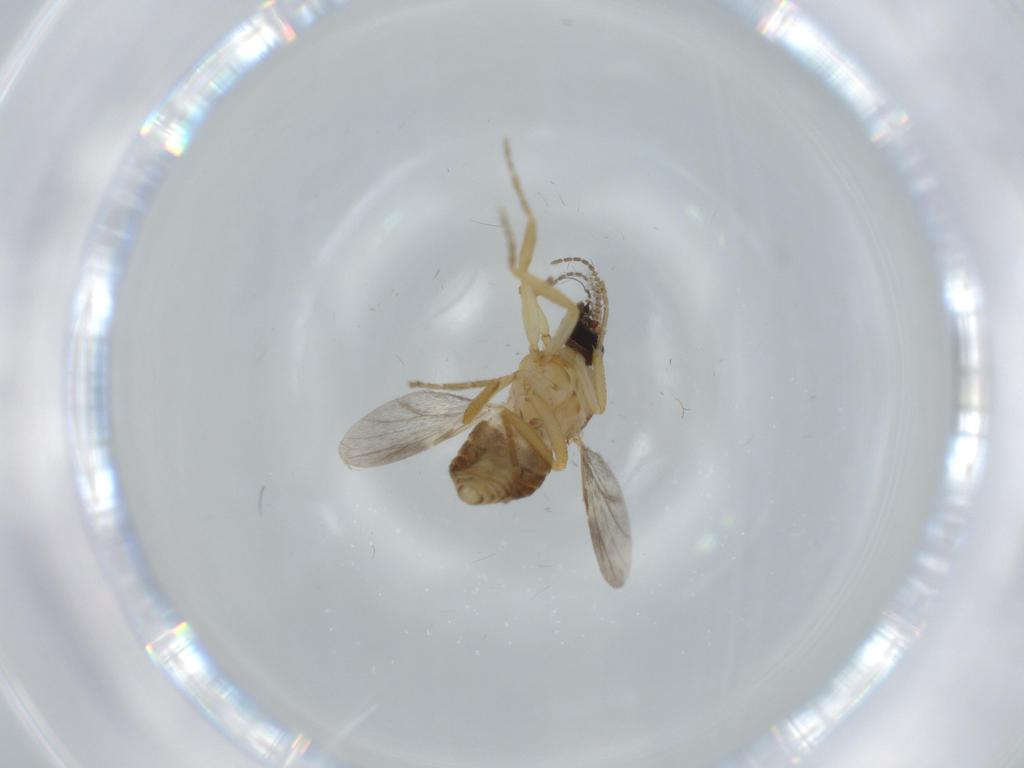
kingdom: Animalia
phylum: Arthropoda
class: Insecta
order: Diptera
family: Ceratopogonidae
